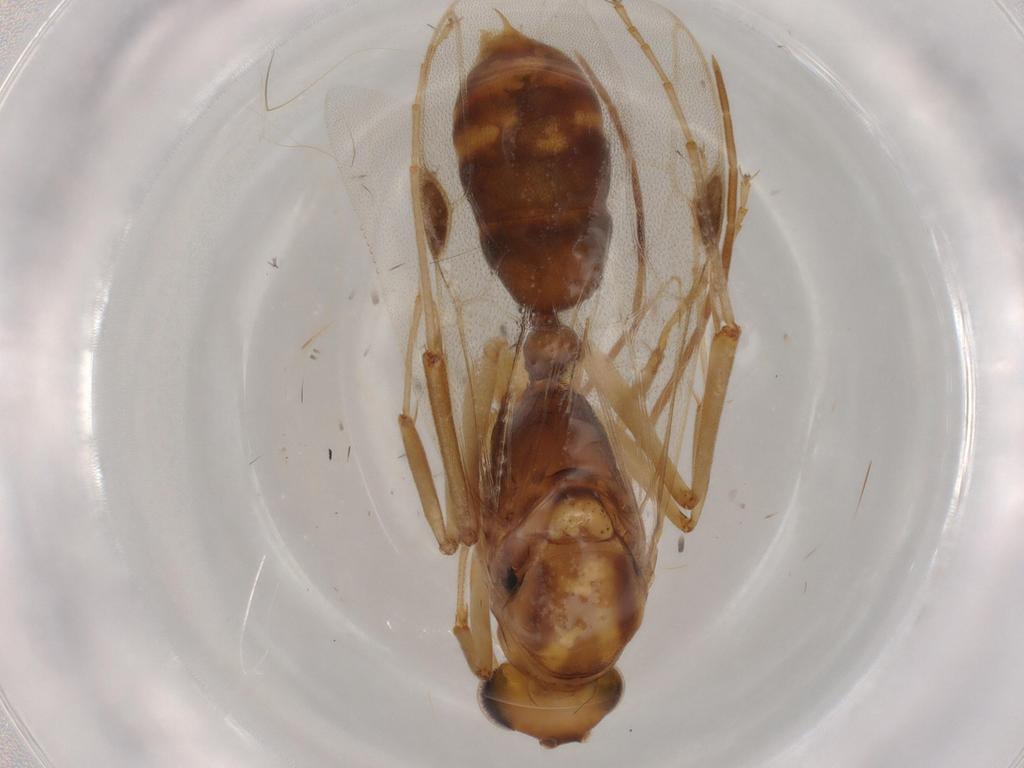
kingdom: Animalia
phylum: Arthropoda
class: Insecta
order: Hymenoptera
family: Formicidae
